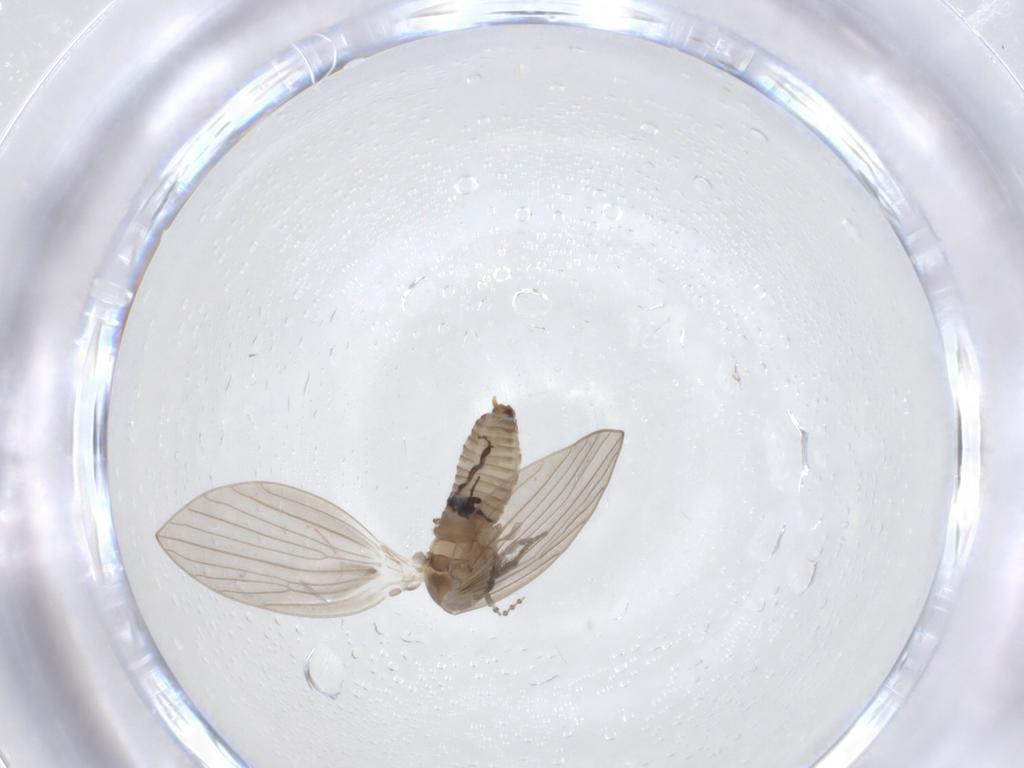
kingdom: Animalia
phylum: Arthropoda
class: Insecta
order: Diptera
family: Psychodidae
